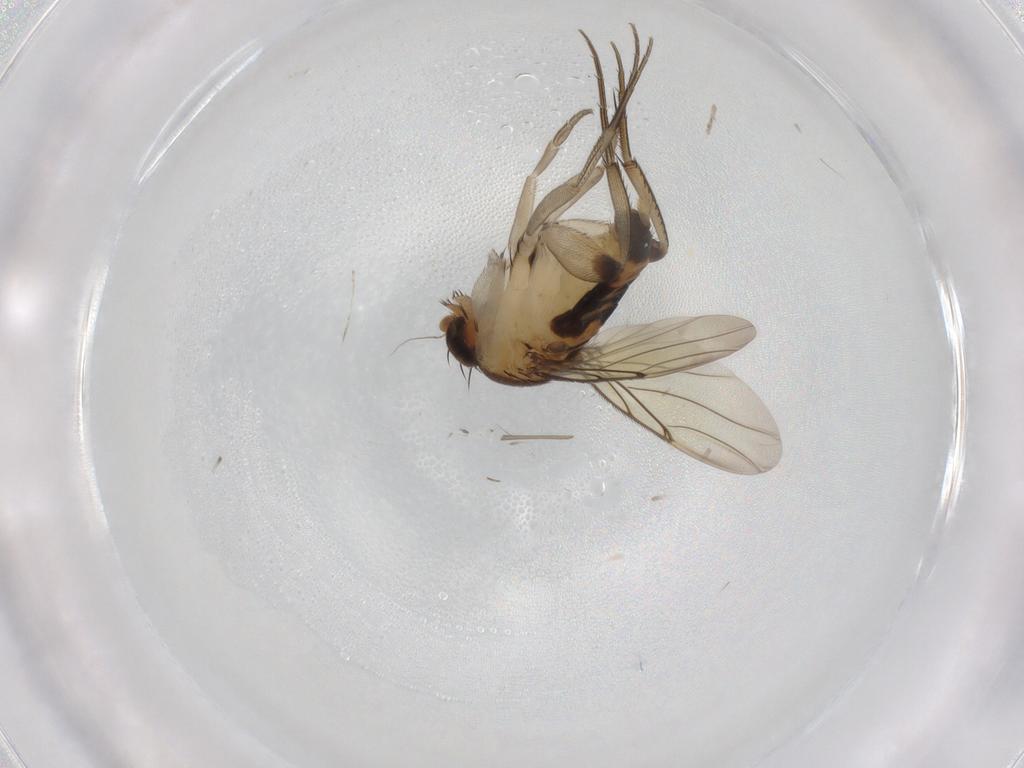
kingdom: Animalia
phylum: Arthropoda
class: Insecta
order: Diptera
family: Phoridae
